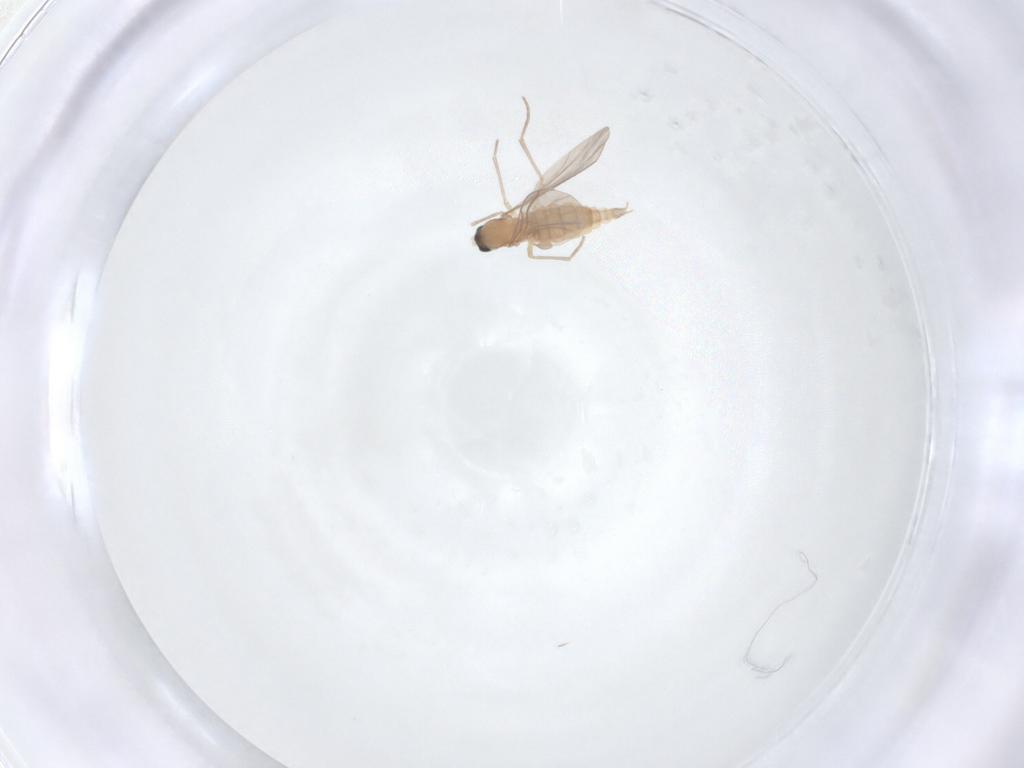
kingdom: Animalia
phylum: Arthropoda
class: Insecta
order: Diptera
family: Sciaridae
